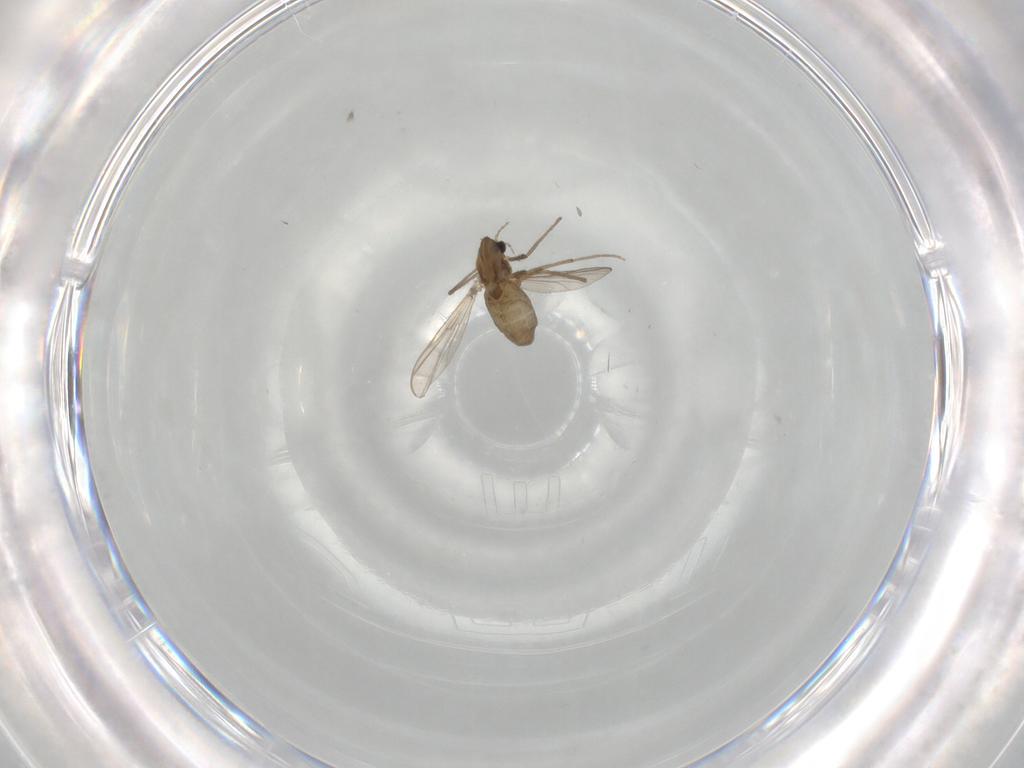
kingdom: Animalia
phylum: Arthropoda
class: Insecta
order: Diptera
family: Chironomidae
